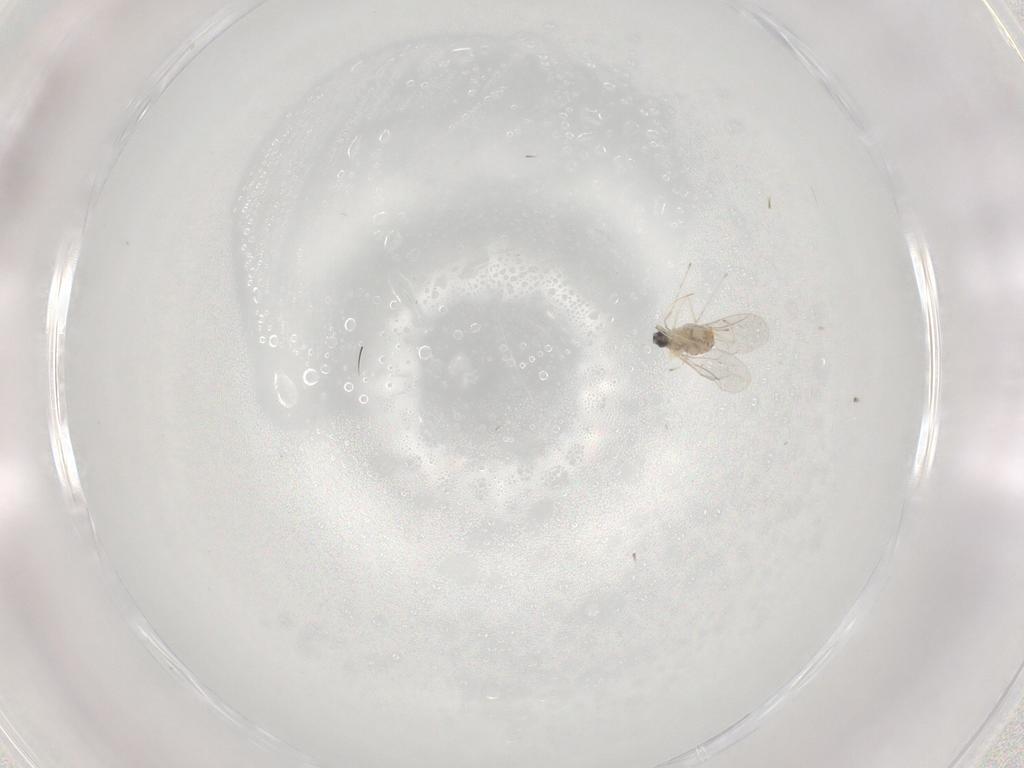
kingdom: Animalia
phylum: Arthropoda
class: Insecta
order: Diptera
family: Cecidomyiidae
